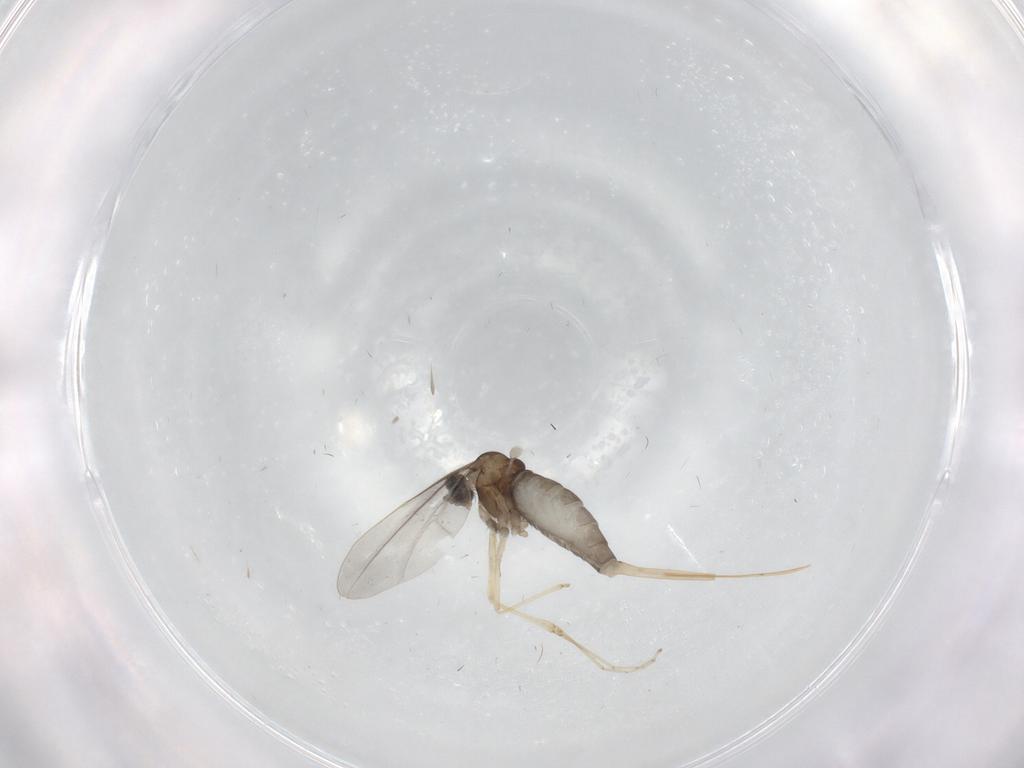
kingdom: Animalia
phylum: Arthropoda
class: Insecta
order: Diptera
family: Cecidomyiidae
